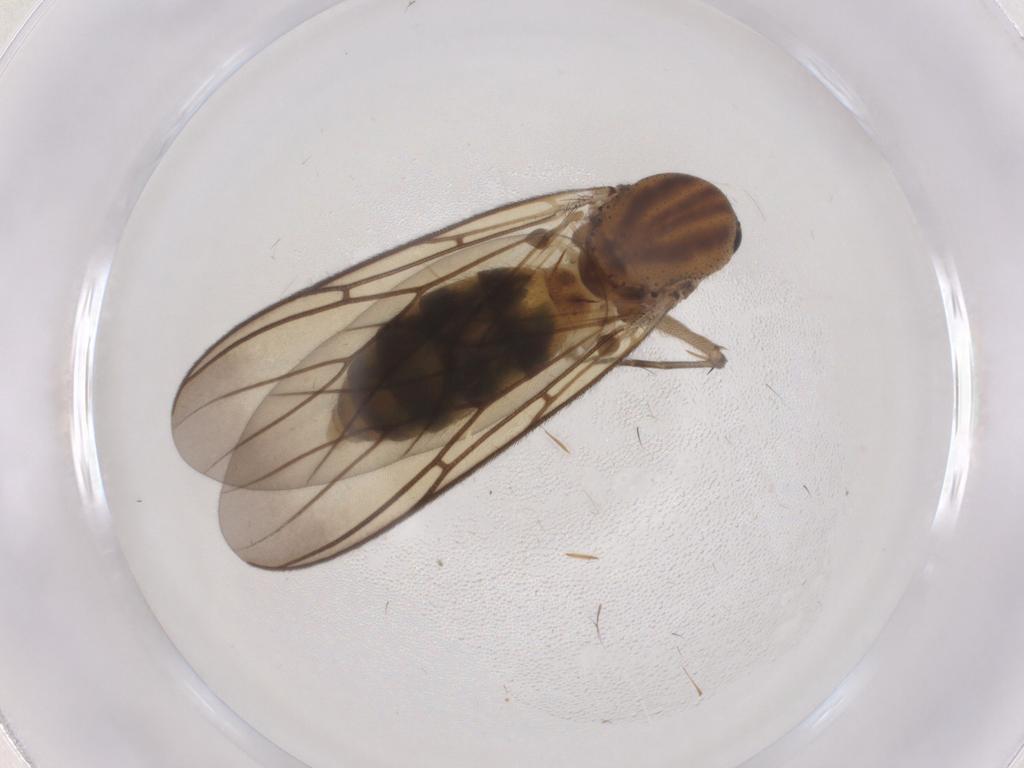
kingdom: Animalia
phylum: Arthropoda
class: Insecta
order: Diptera
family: Mycetophilidae
